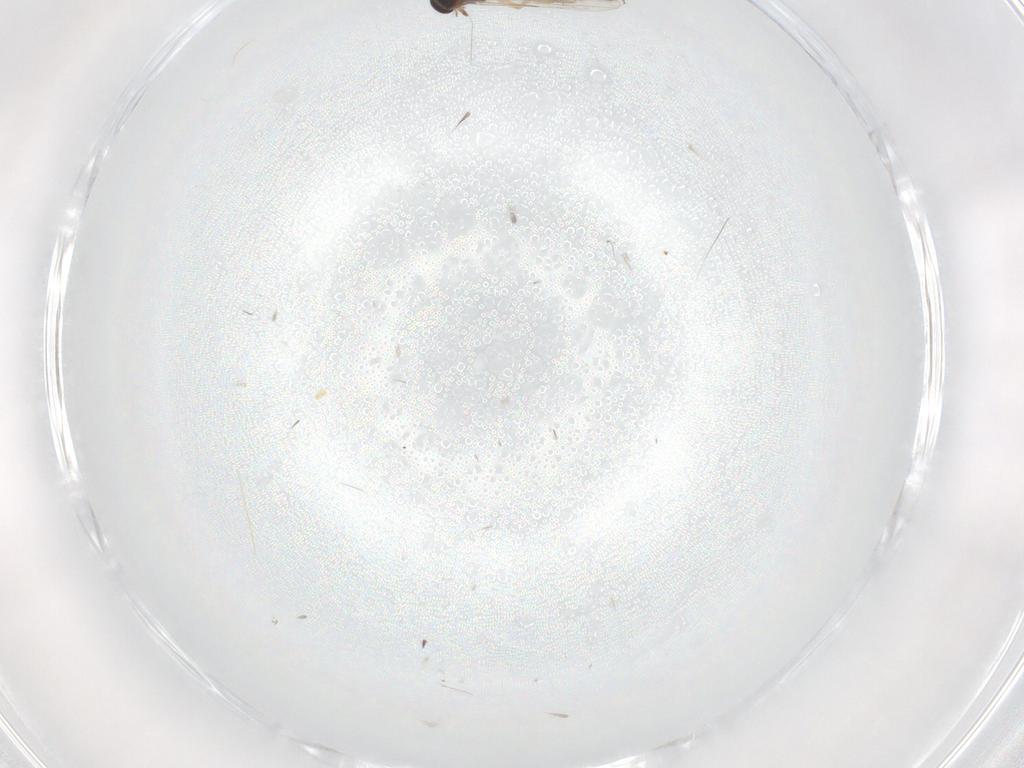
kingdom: Animalia
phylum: Arthropoda
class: Insecta
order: Diptera
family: Ceratopogonidae
